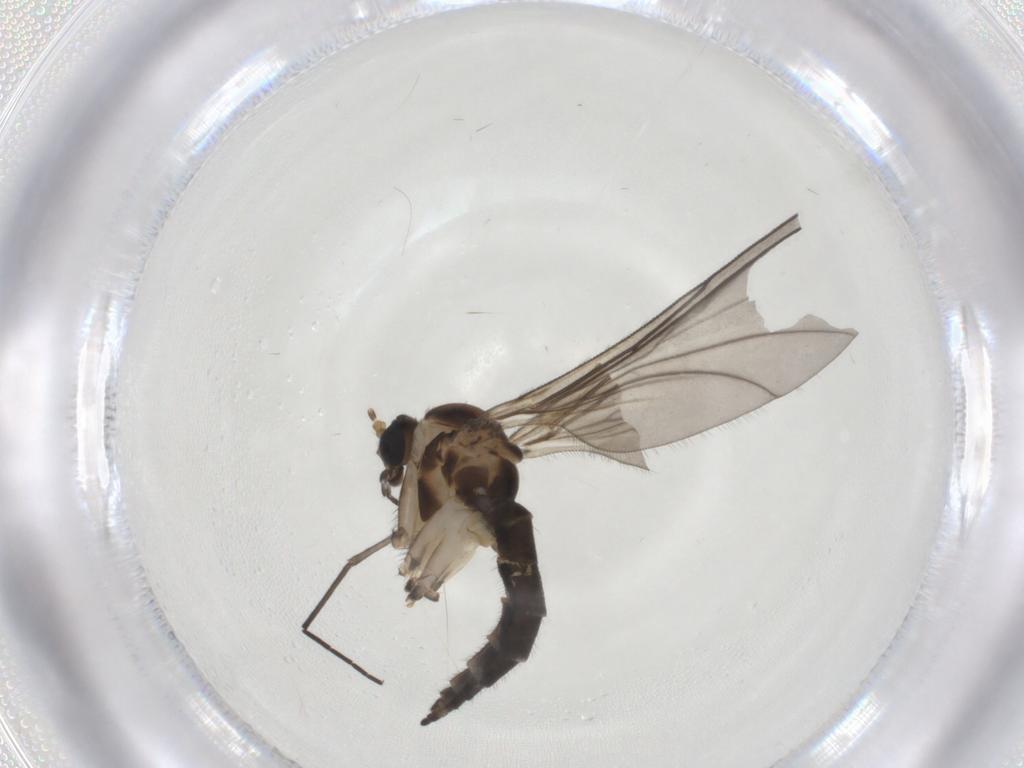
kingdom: Animalia
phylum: Arthropoda
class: Insecta
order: Diptera
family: Sciaridae
